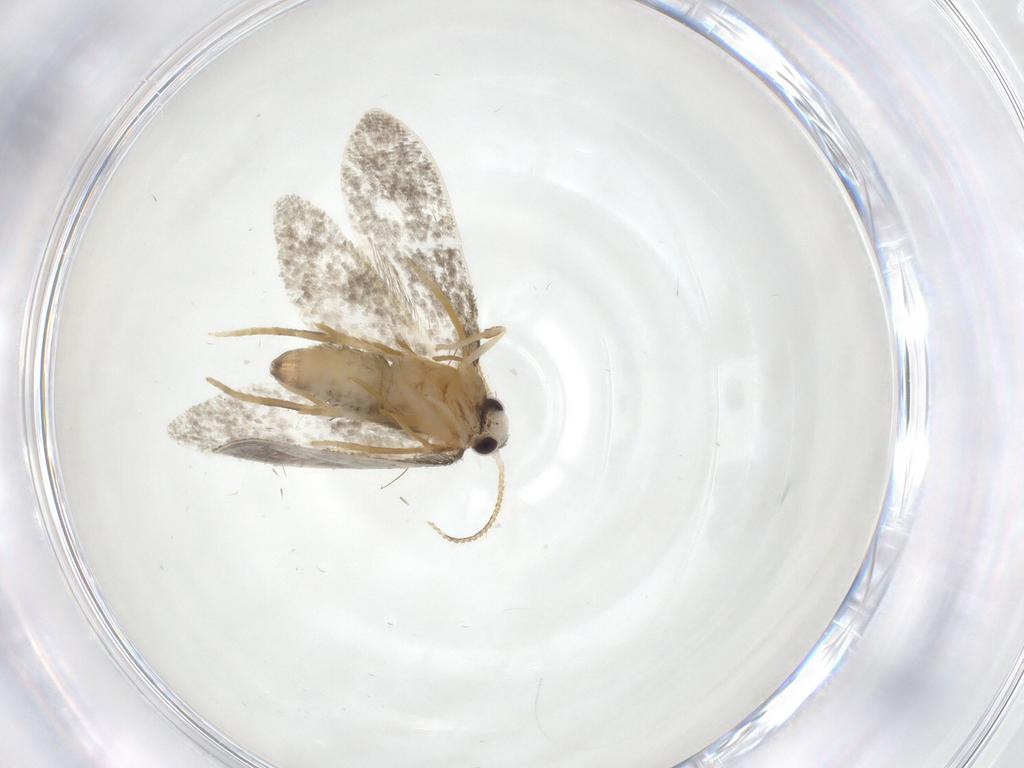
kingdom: Animalia
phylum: Arthropoda
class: Insecta
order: Lepidoptera
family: Psychidae
